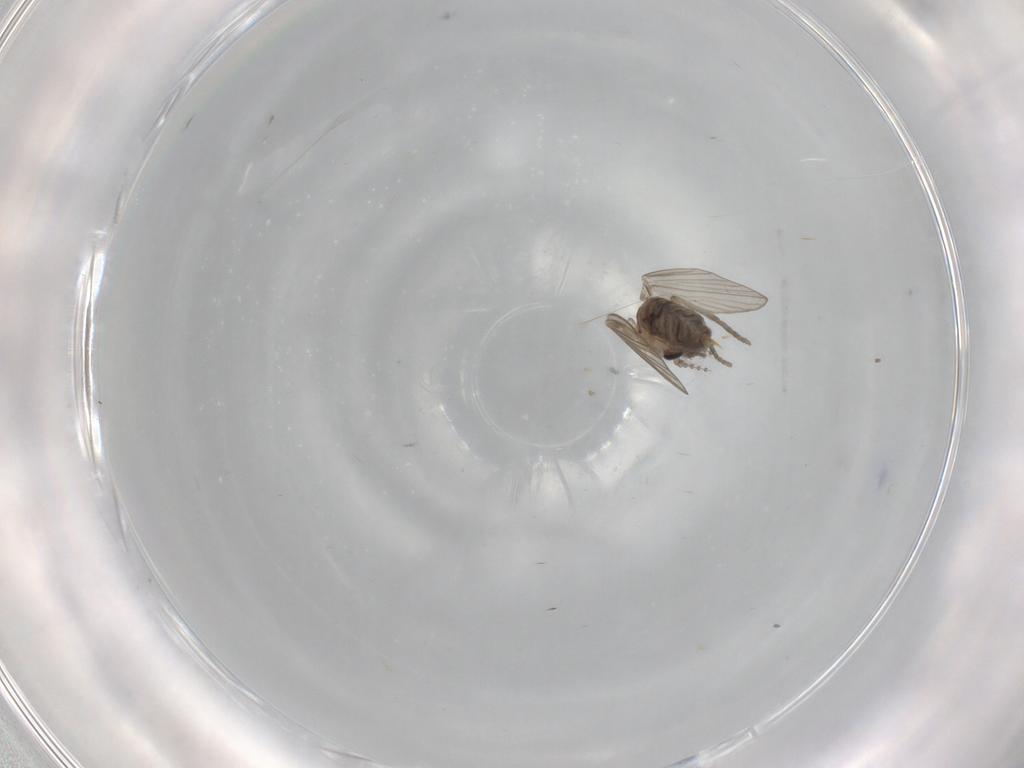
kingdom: Animalia
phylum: Arthropoda
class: Insecta
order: Diptera
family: Psychodidae
